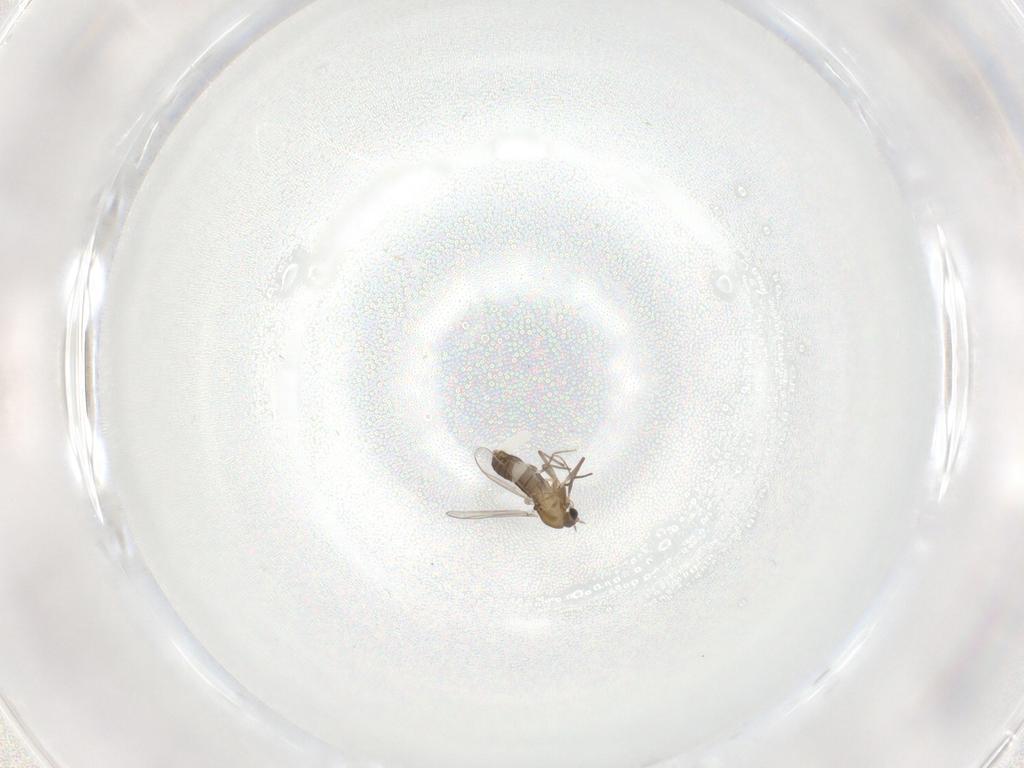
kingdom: Animalia
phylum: Arthropoda
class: Insecta
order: Diptera
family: Chironomidae
